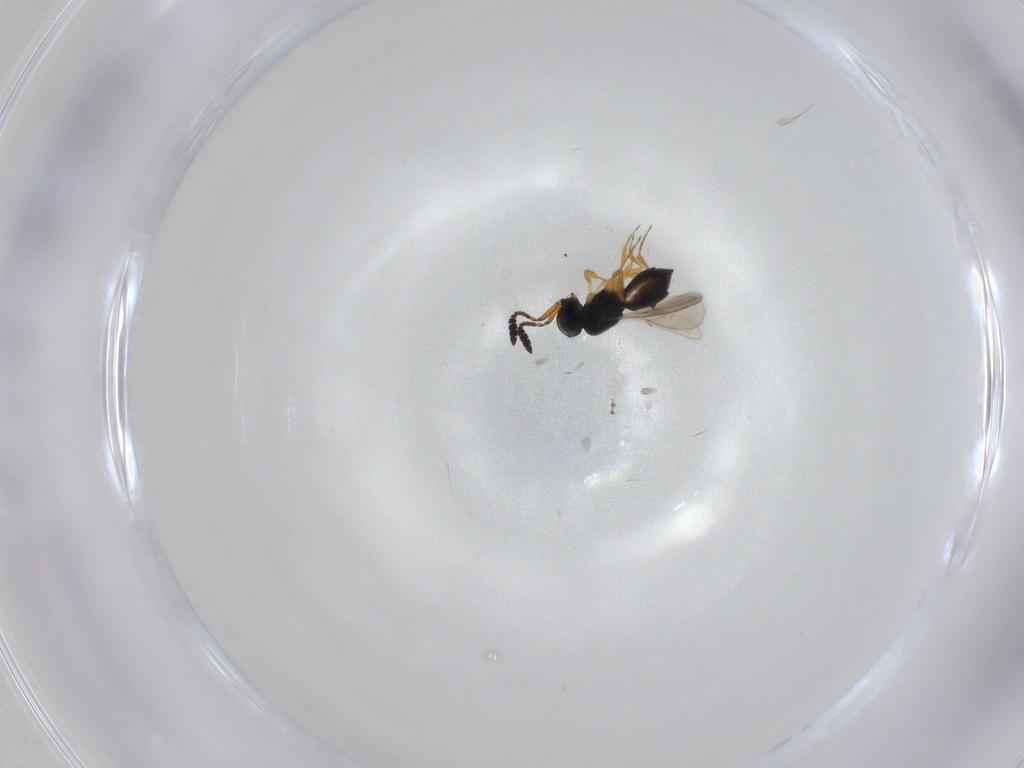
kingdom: Animalia
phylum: Arthropoda
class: Insecta
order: Hymenoptera
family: Scelionidae
